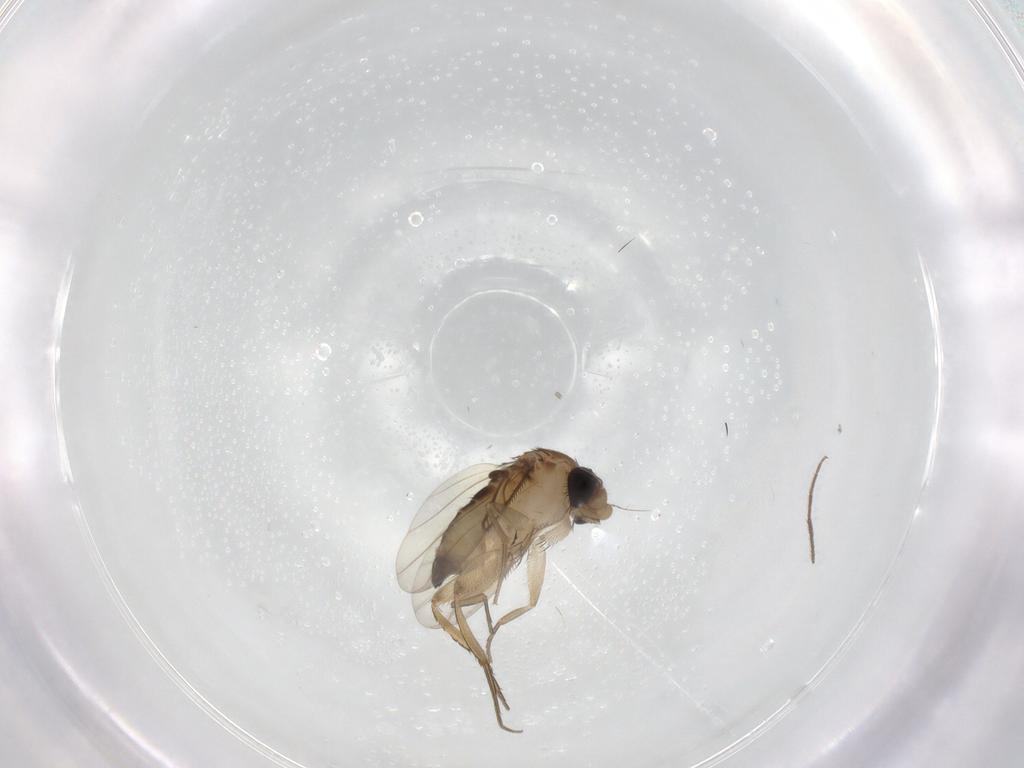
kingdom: Animalia
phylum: Arthropoda
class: Insecta
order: Diptera
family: Phoridae
